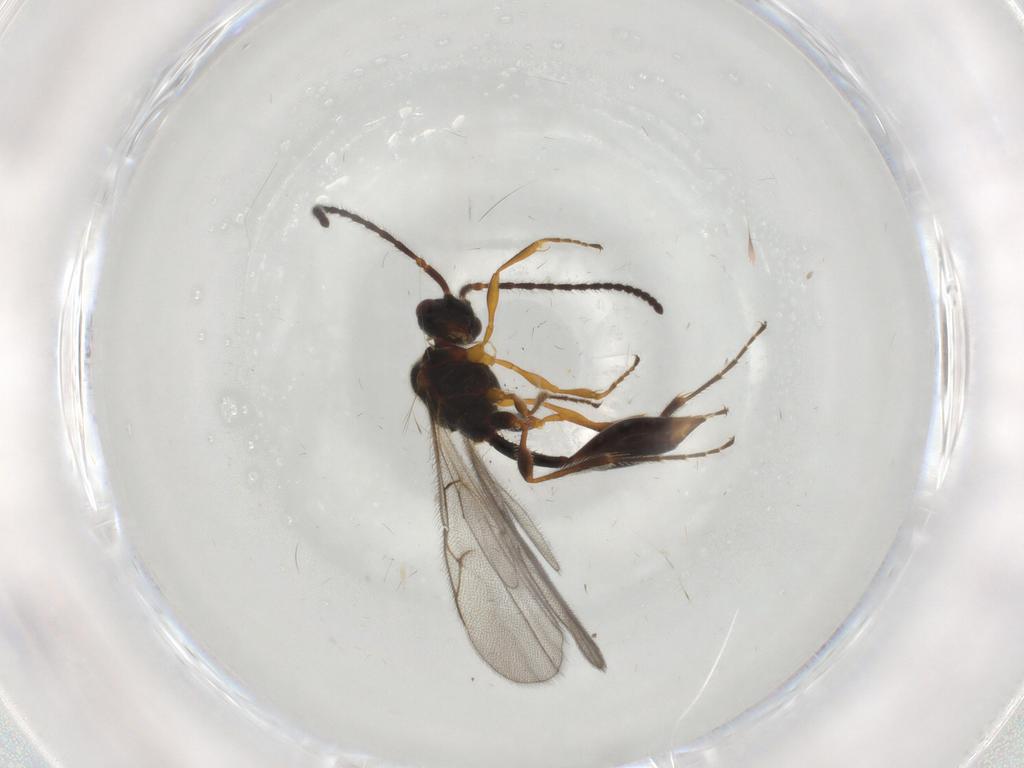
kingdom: Animalia
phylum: Arthropoda
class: Insecta
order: Hymenoptera
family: Diapriidae
